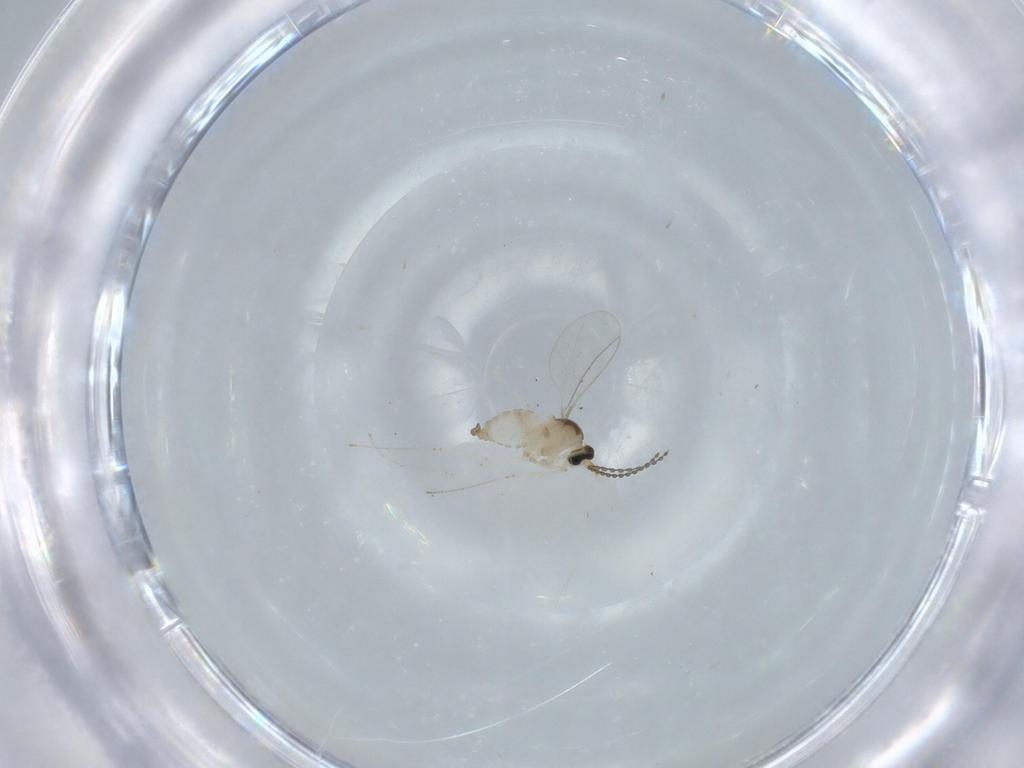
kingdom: Animalia
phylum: Arthropoda
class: Insecta
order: Diptera
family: Cecidomyiidae
